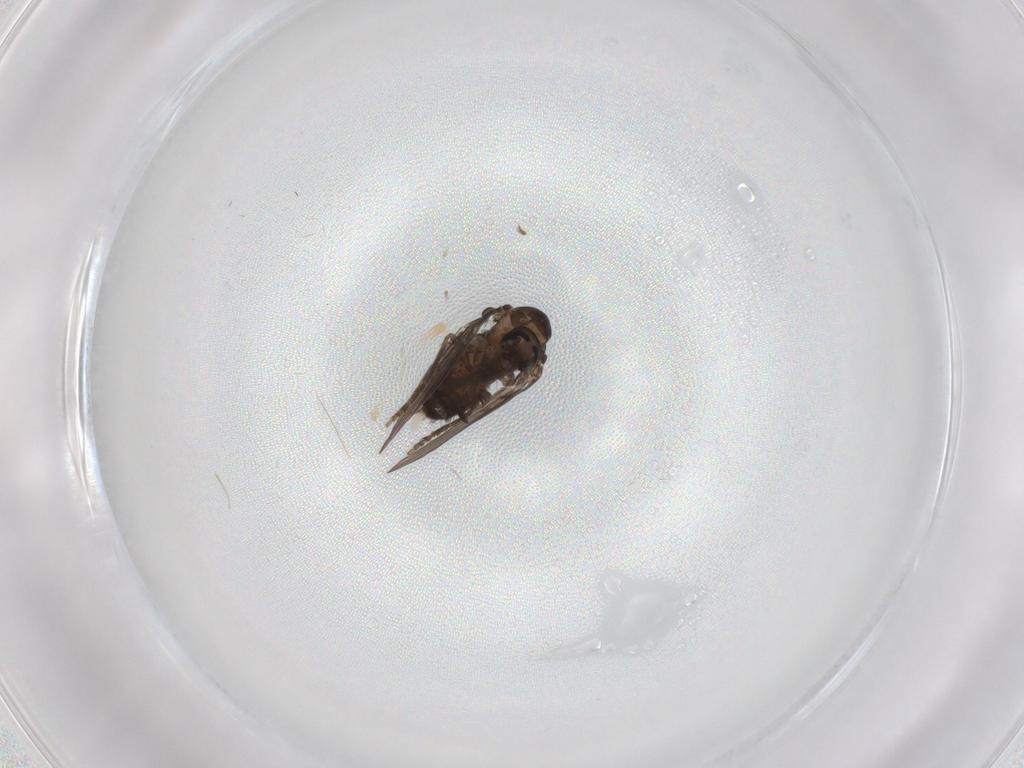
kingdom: Animalia
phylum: Arthropoda
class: Insecta
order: Diptera
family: Psychodidae
